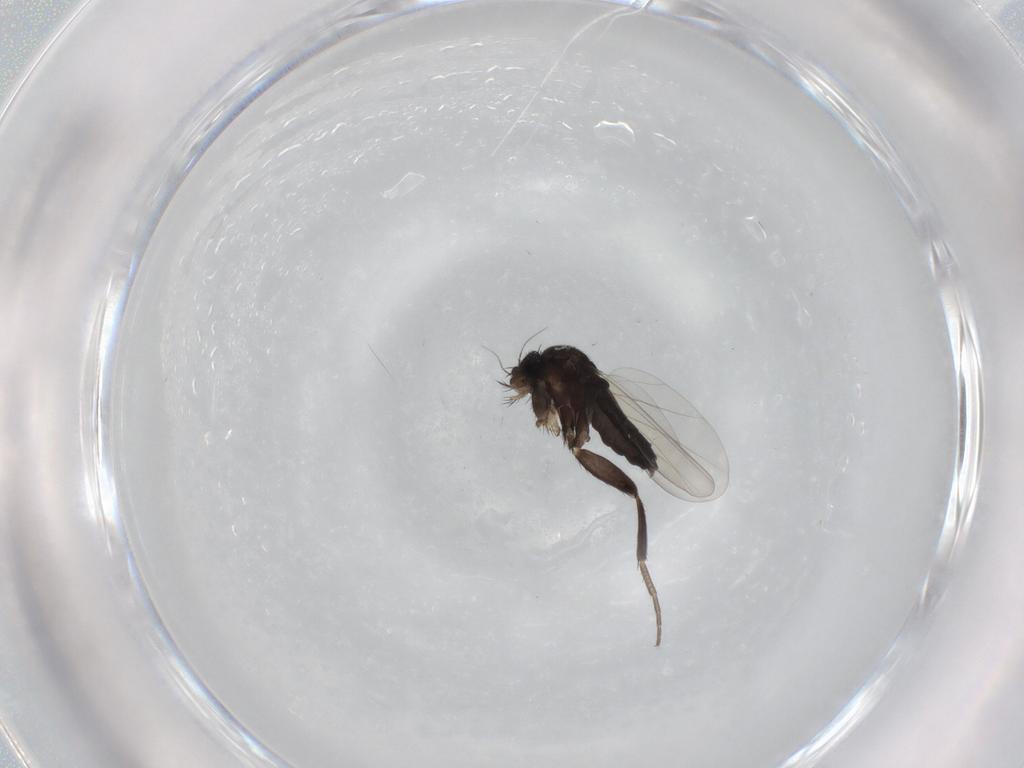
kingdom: Animalia
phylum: Arthropoda
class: Insecta
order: Diptera
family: Phoridae
